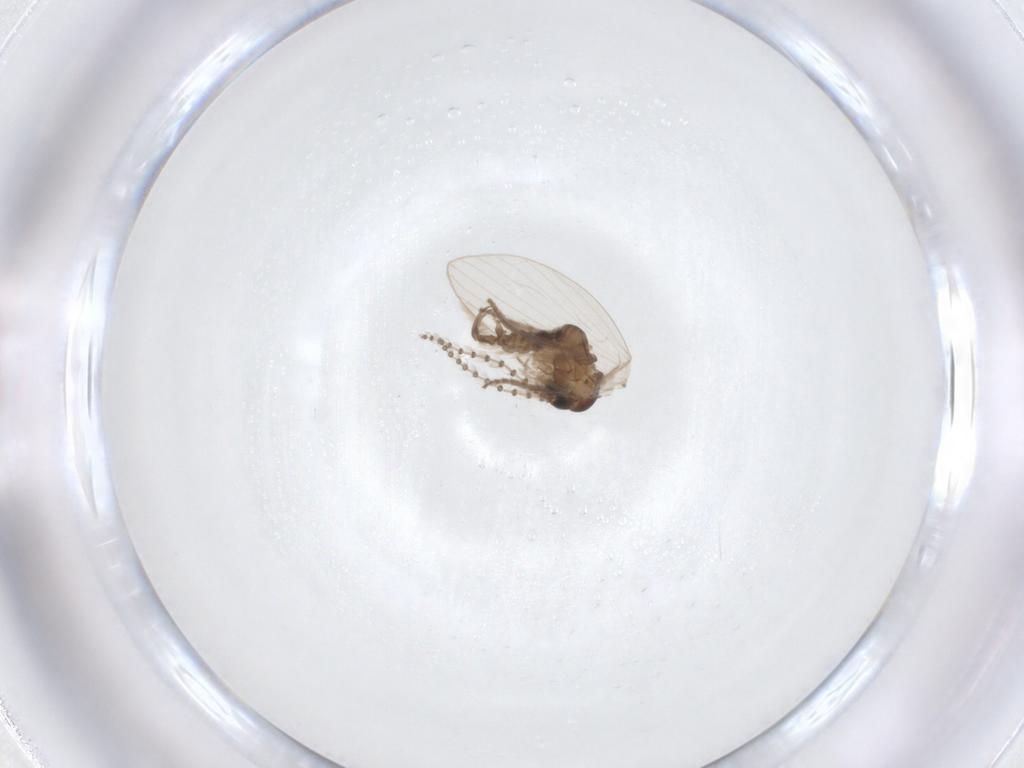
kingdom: Animalia
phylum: Arthropoda
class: Insecta
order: Diptera
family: Psychodidae
